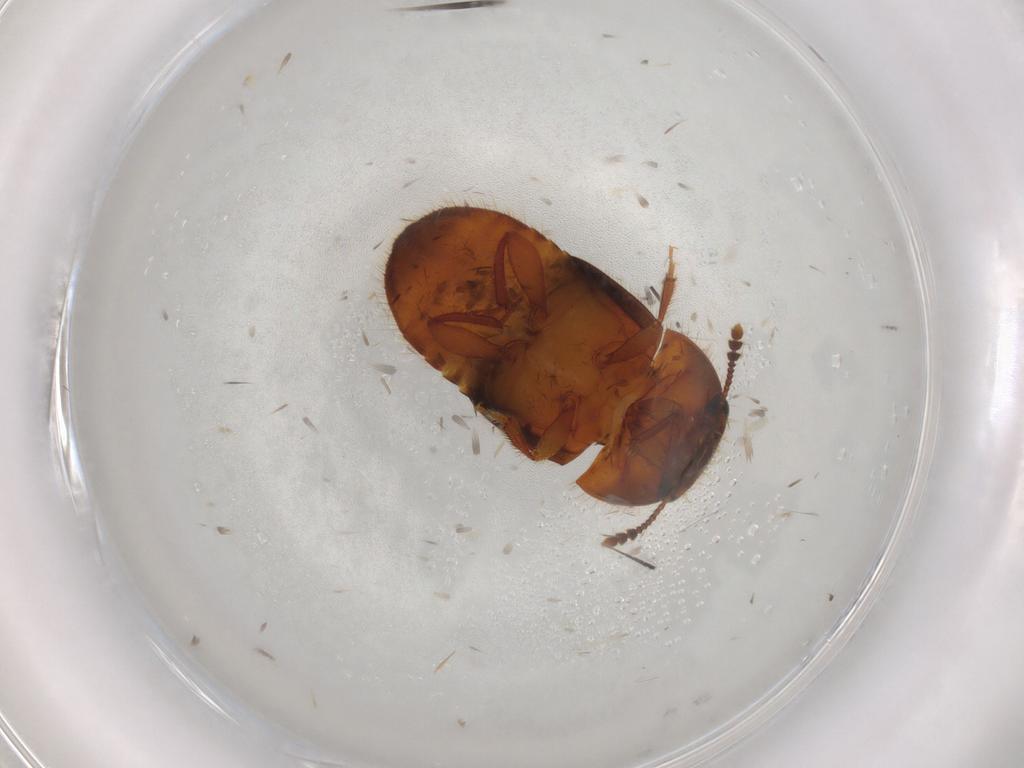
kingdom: Animalia
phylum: Arthropoda
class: Insecta
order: Coleoptera
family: Nitidulidae
